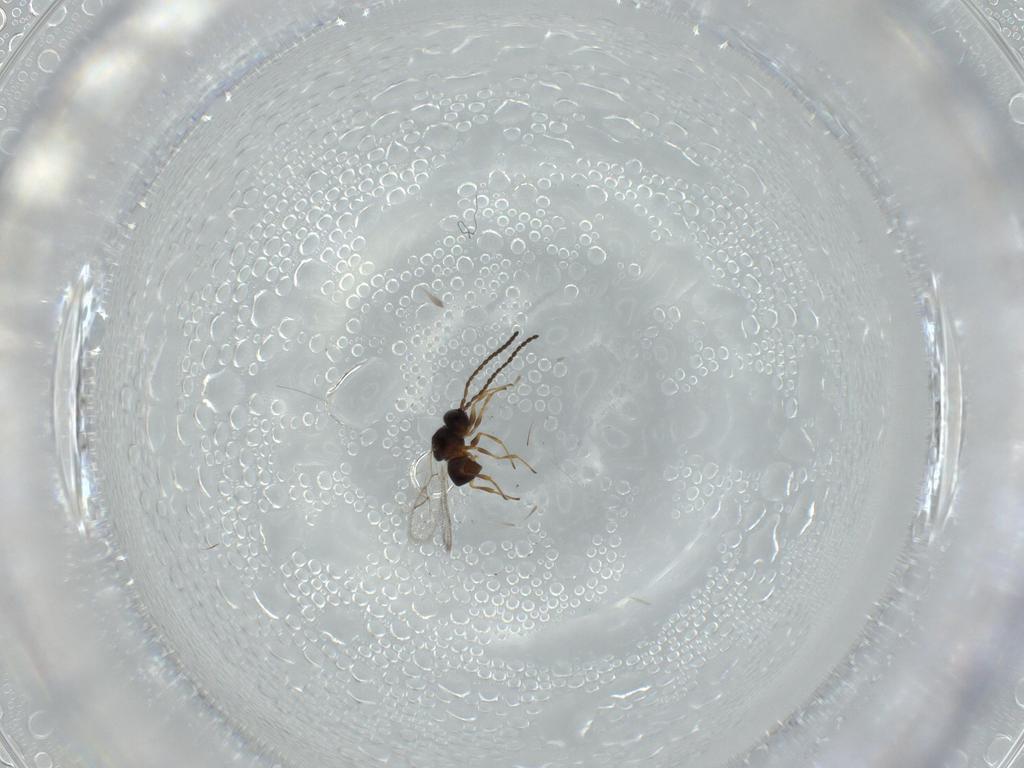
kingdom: Animalia
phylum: Arthropoda
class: Insecta
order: Hymenoptera
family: Figitidae
